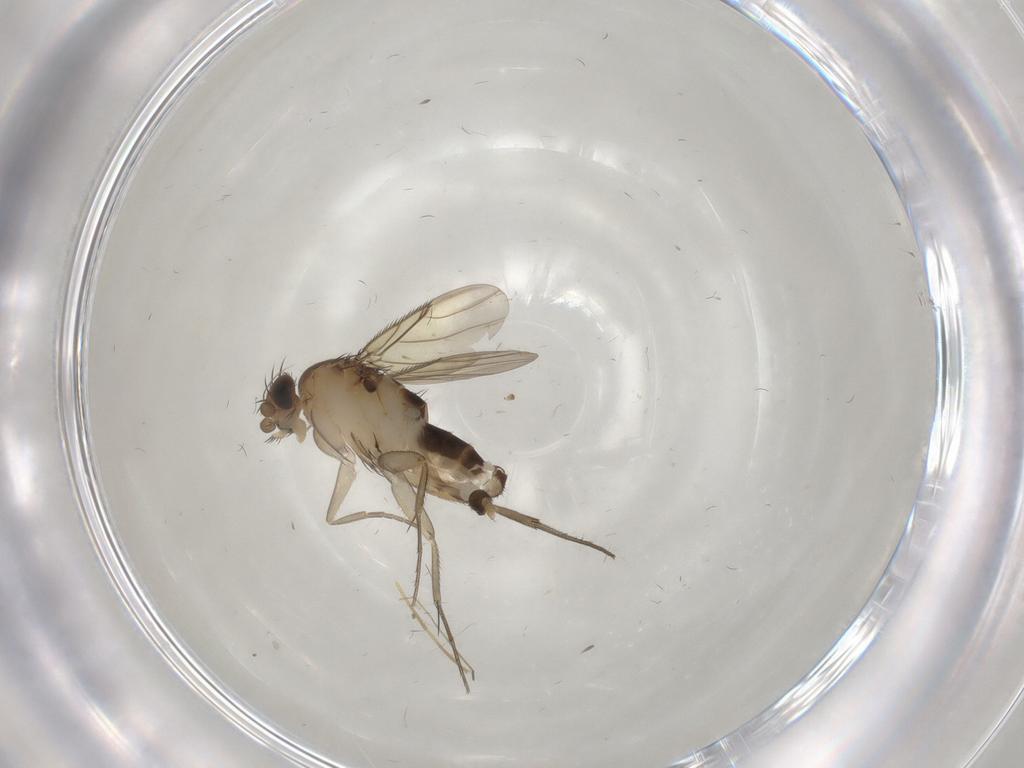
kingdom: Animalia
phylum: Arthropoda
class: Insecta
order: Diptera
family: Chironomidae
